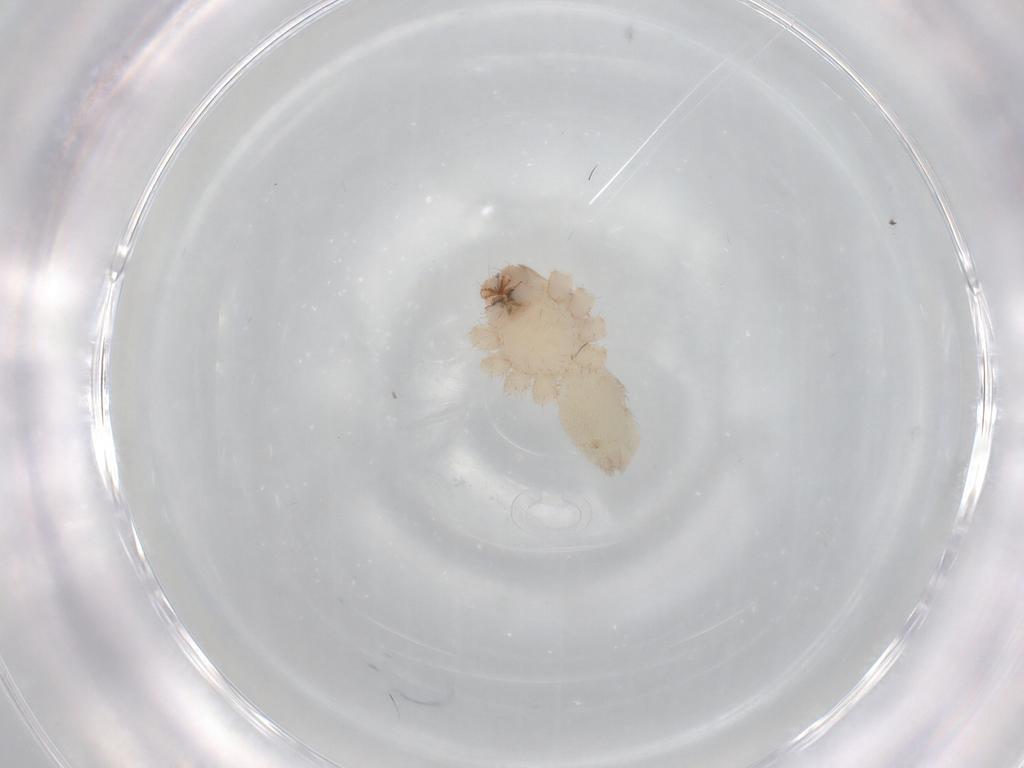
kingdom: Animalia
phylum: Arthropoda
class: Arachnida
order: Araneae
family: Corinnidae
